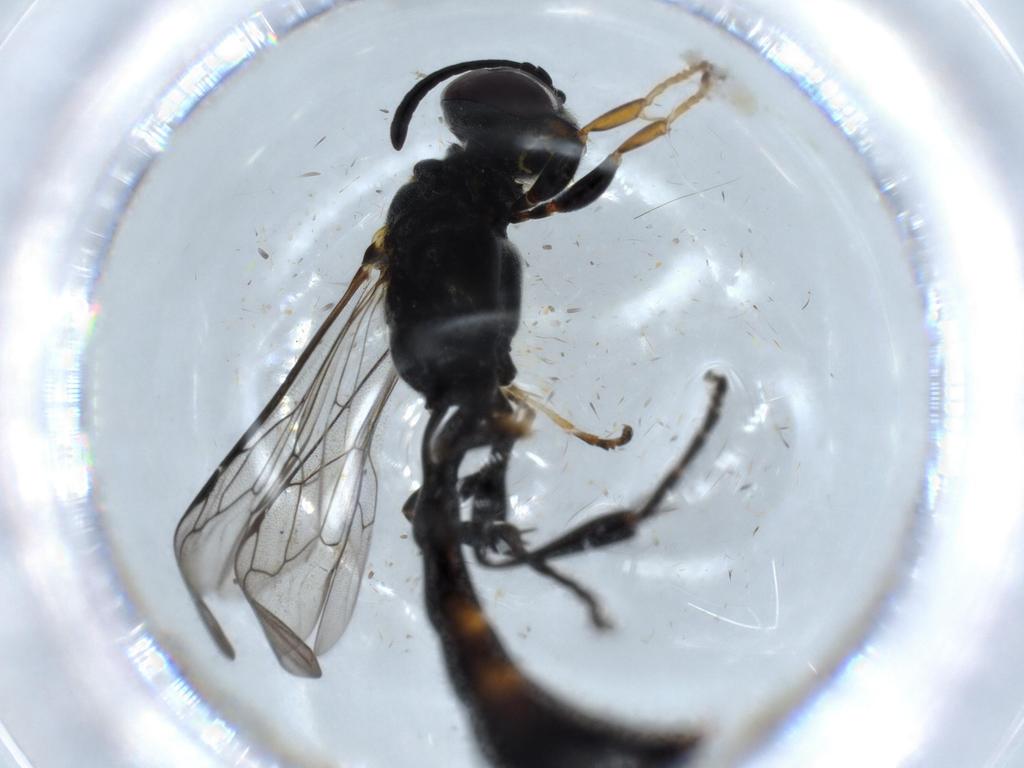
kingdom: Animalia
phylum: Arthropoda
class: Insecta
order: Hymenoptera
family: Crabronidae
